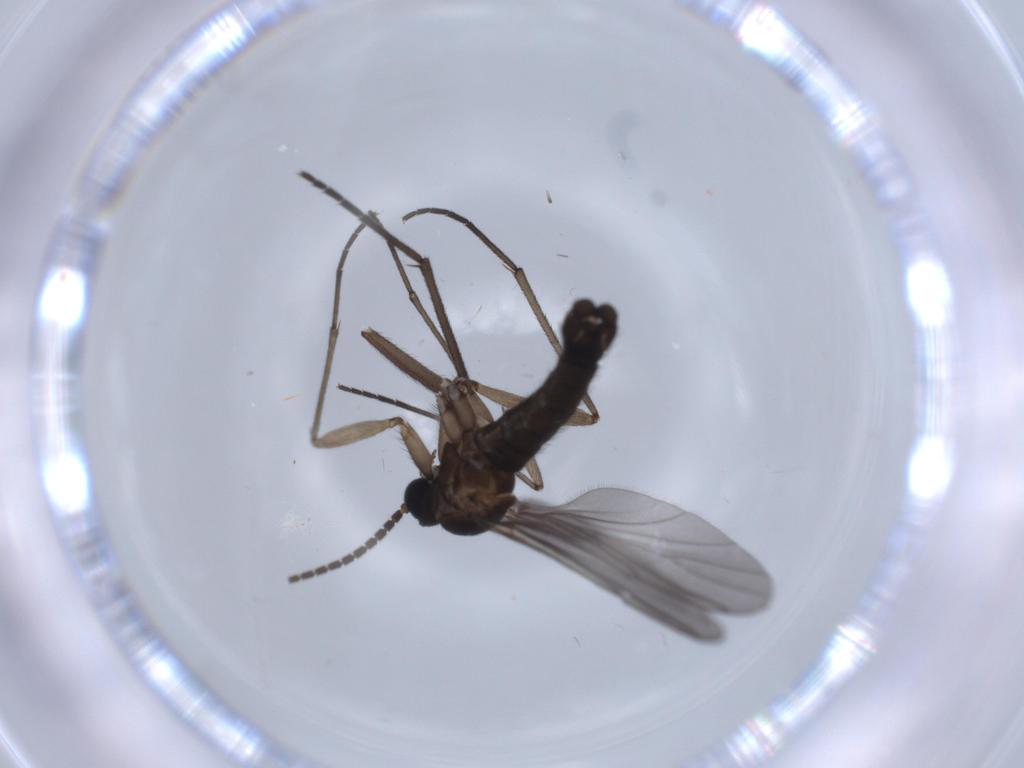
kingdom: Animalia
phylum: Arthropoda
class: Insecta
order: Diptera
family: Sciaridae
